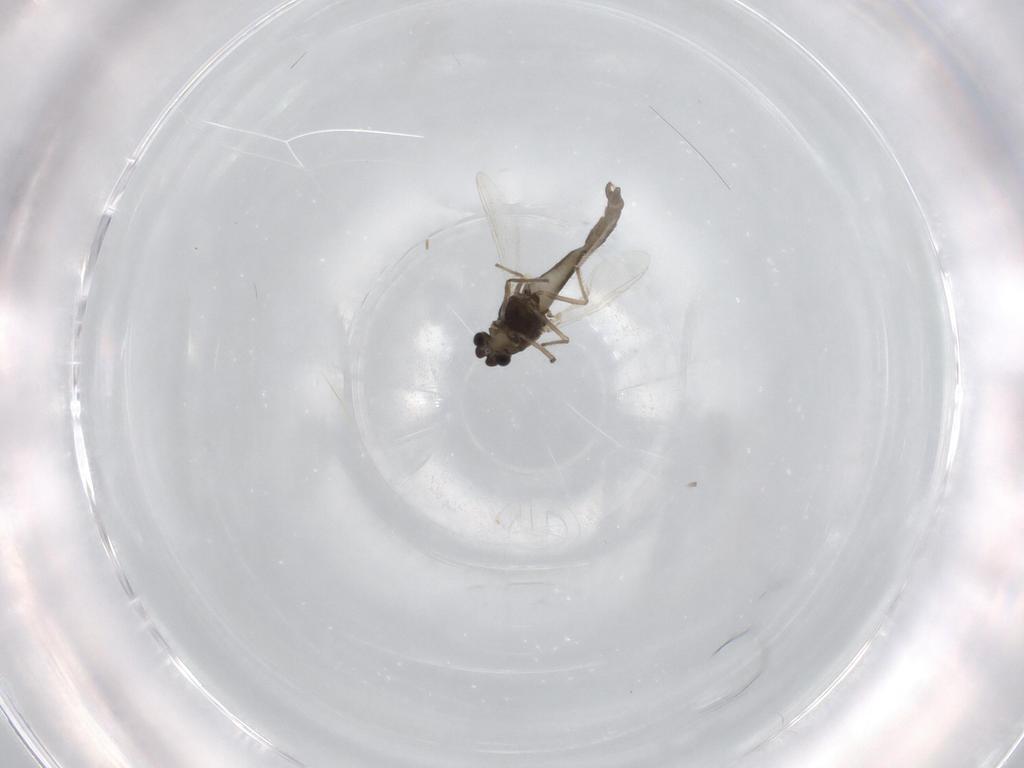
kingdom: Animalia
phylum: Arthropoda
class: Insecta
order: Diptera
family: Chironomidae
